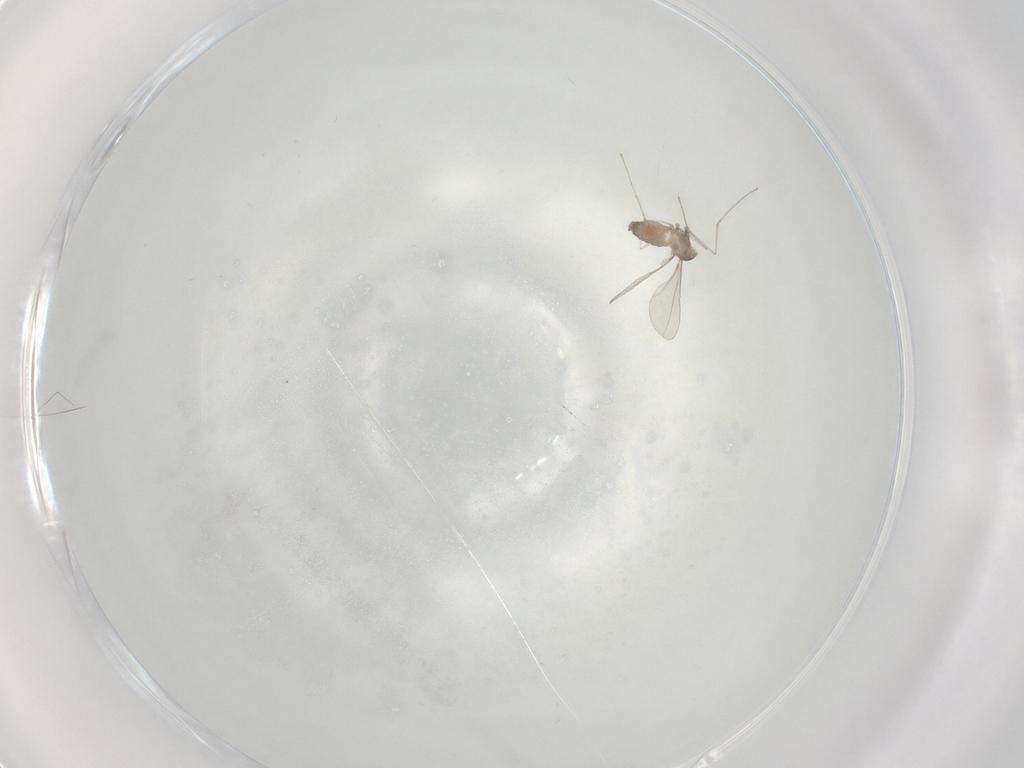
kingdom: Animalia
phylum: Arthropoda
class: Insecta
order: Diptera
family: Cecidomyiidae
